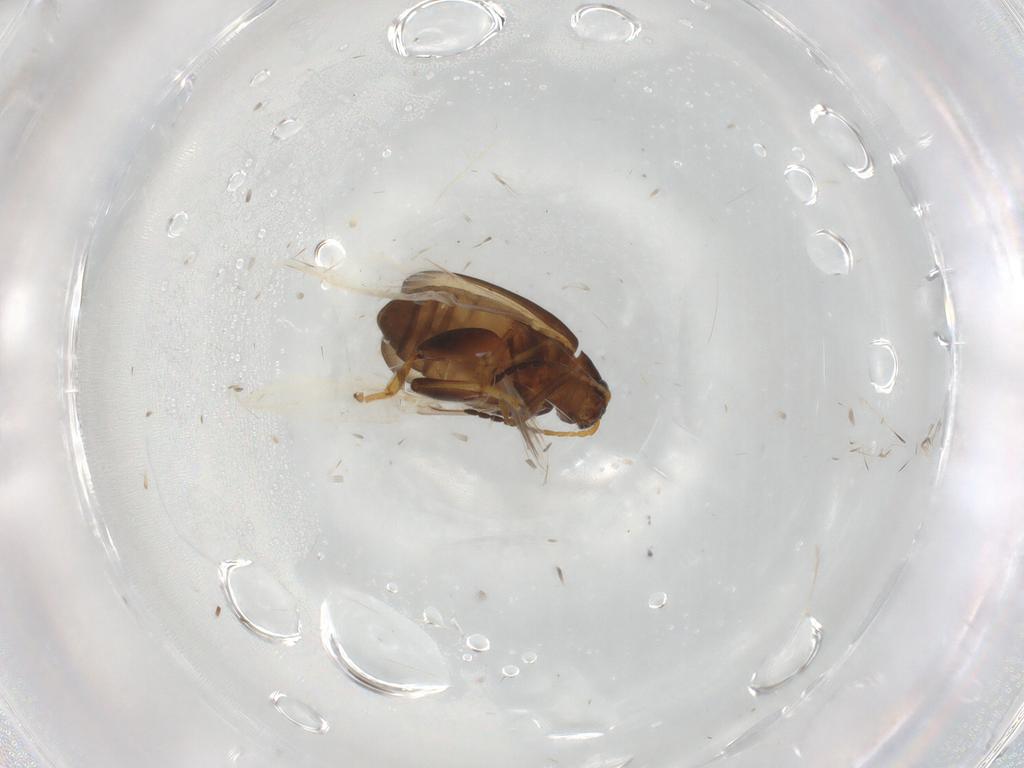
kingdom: Animalia
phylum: Arthropoda
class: Insecta
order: Coleoptera
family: Chrysomelidae
